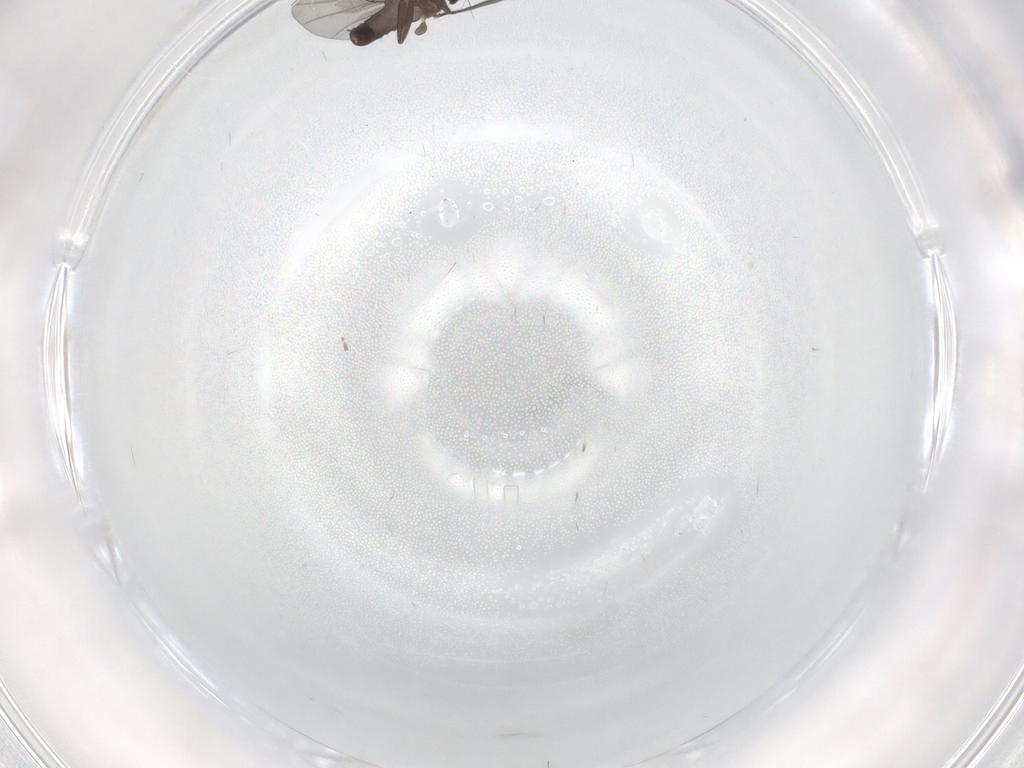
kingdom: Animalia
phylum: Arthropoda
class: Insecta
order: Diptera
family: Phoridae
